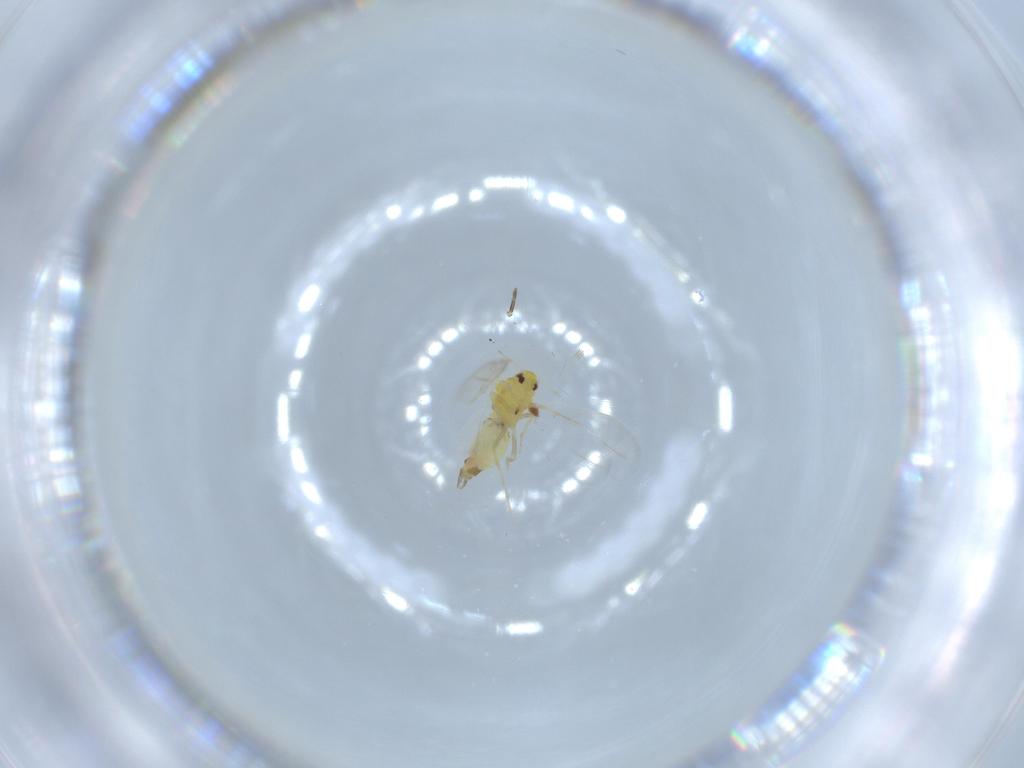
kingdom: Animalia
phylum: Arthropoda
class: Insecta
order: Hemiptera
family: Aleyrodidae
